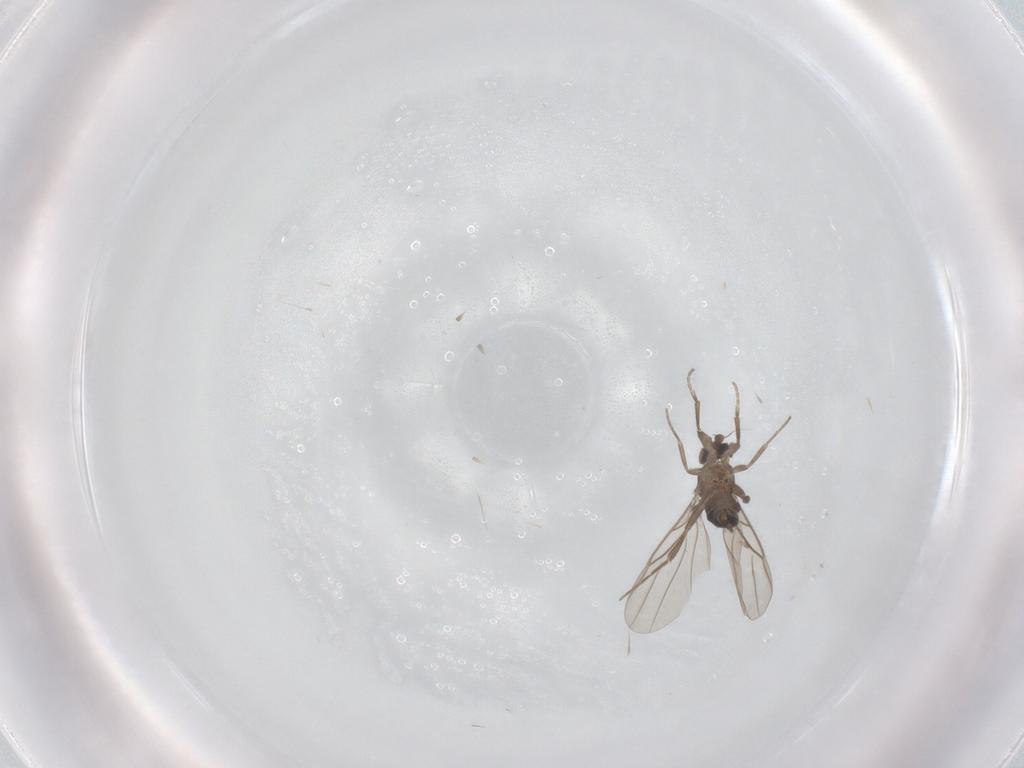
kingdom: Animalia
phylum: Arthropoda
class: Insecta
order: Diptera
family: Phoridae
